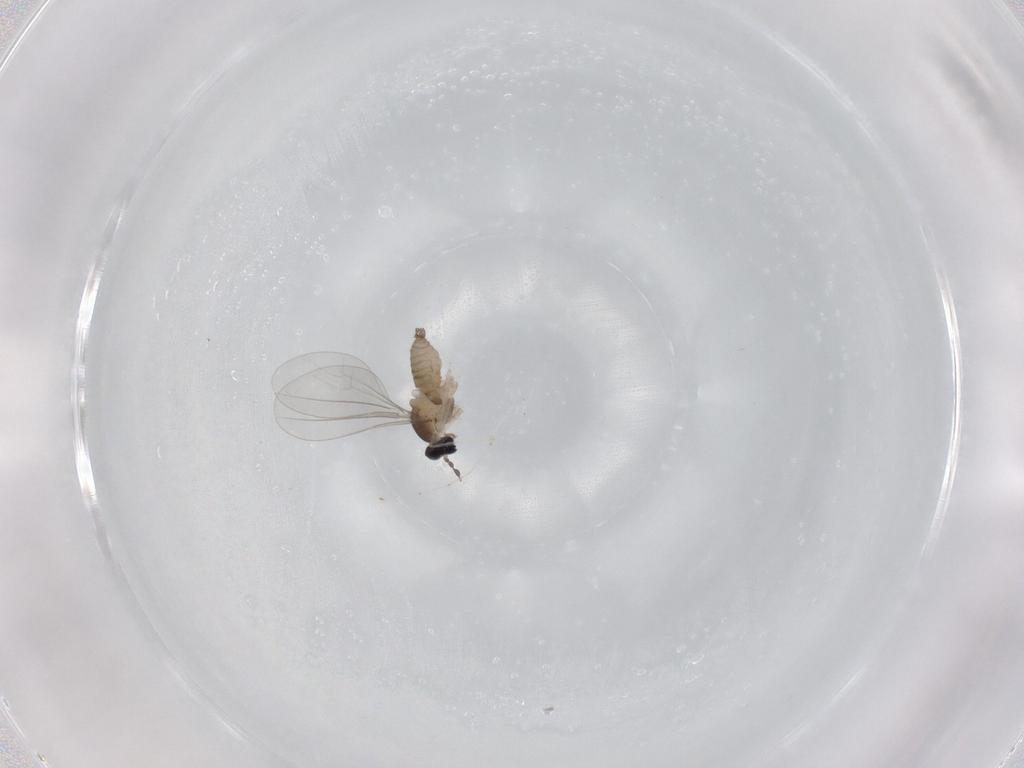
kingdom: Animalia
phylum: Arthropoda
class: Insecta
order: Diptera
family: Cecidomyiidae
